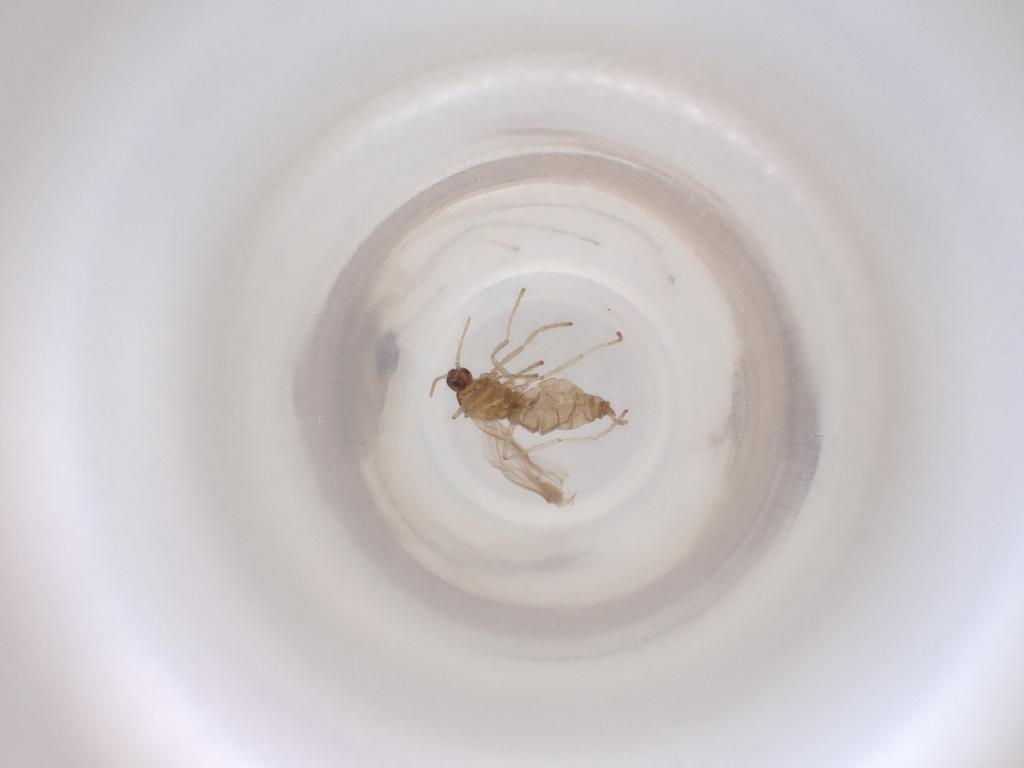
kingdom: Animalia
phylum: Arthropoda
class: Insecta
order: Diptera
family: Cecidomyiidae
